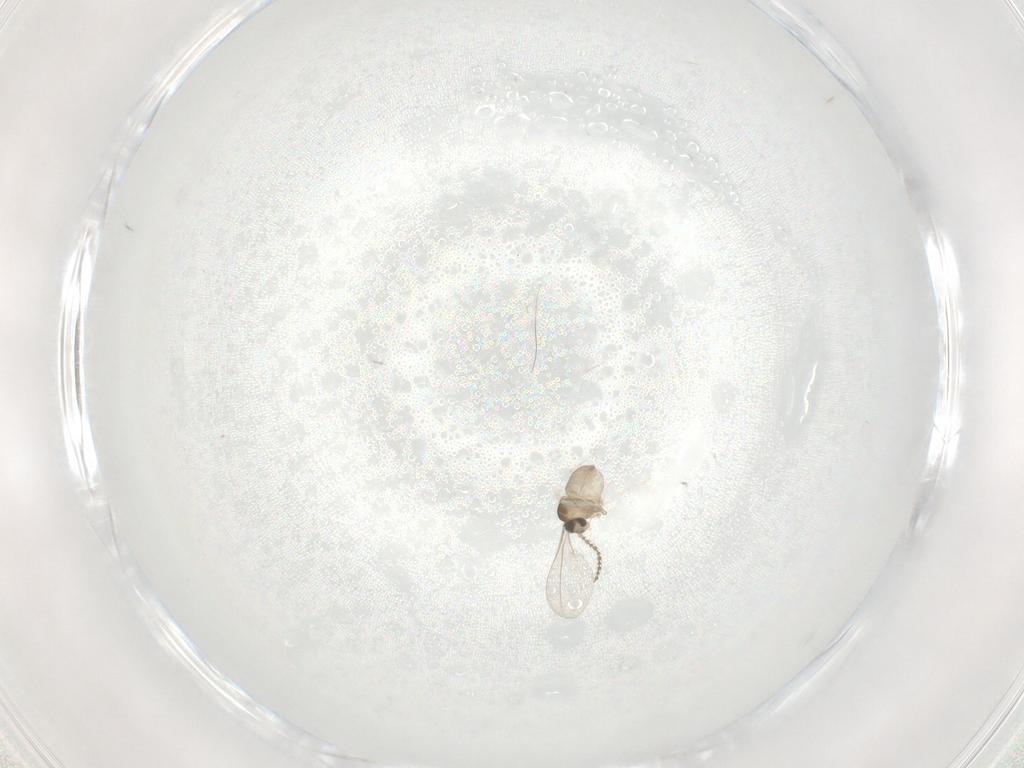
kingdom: Animalia
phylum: Arthropoda
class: Insecta
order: Diptera
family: Cecidomyiidae
